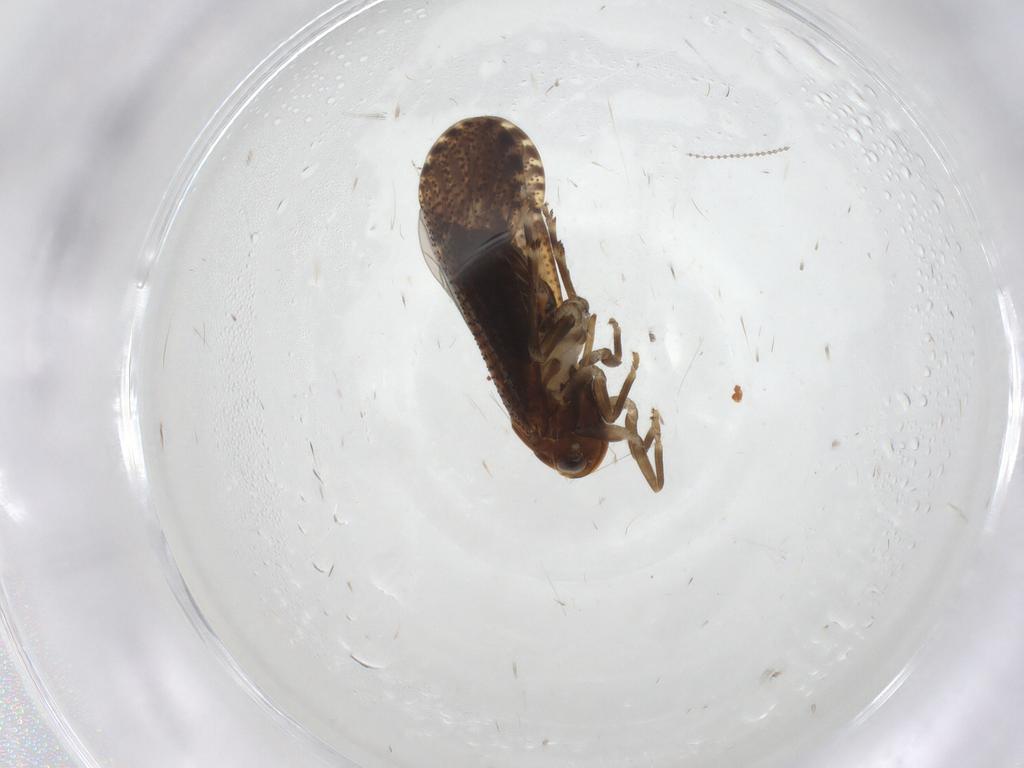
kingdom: Animalia
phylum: Arthropoda
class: Insecta
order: Hemiptera
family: Delphacidae
